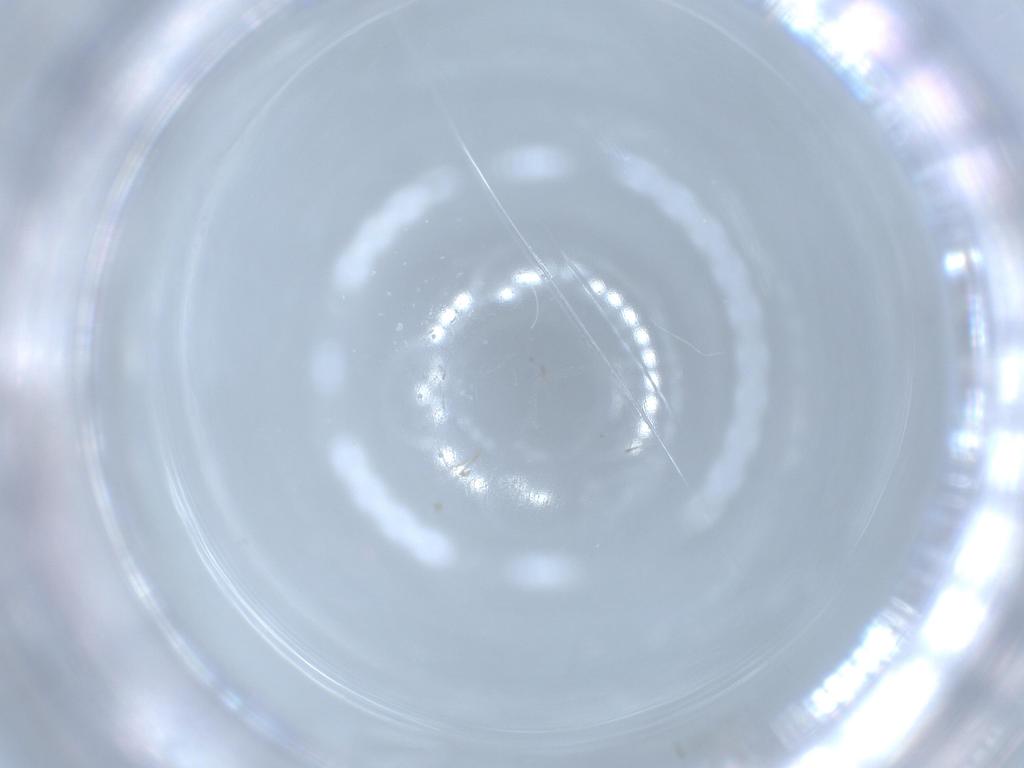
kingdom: Animalia
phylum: Arthropoda
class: Insecta
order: Diptera
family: Cecidomyiidae
